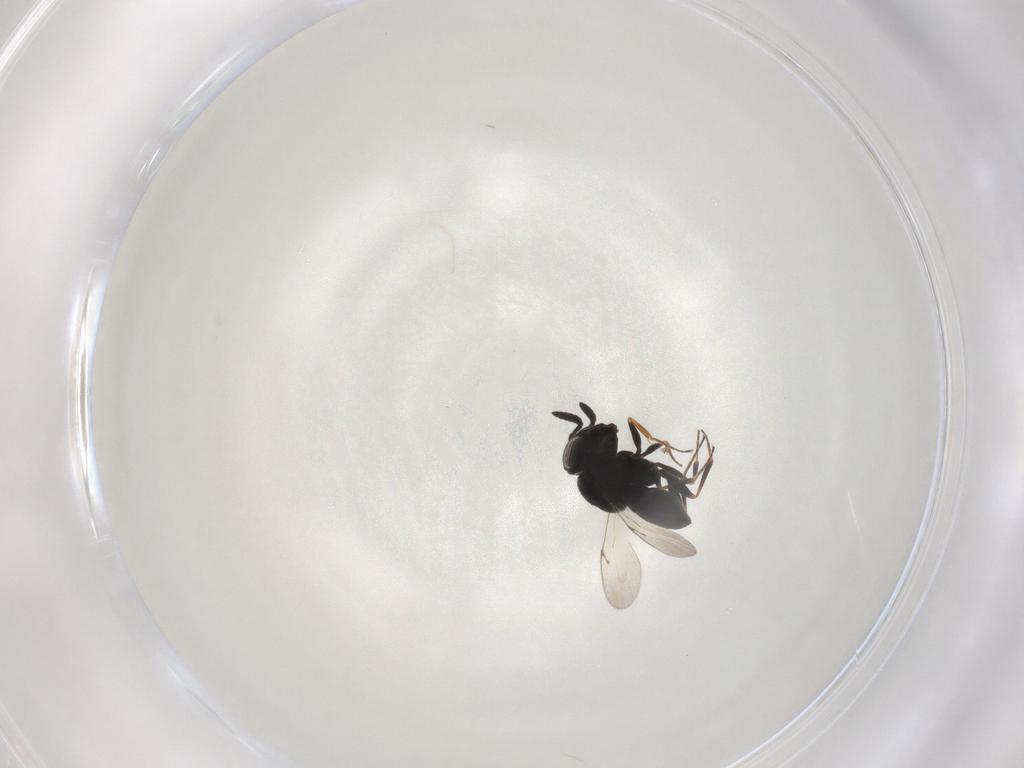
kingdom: Animalia
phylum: Arthropoda
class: Insecta
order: Hymenoptera
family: Scelionidae
